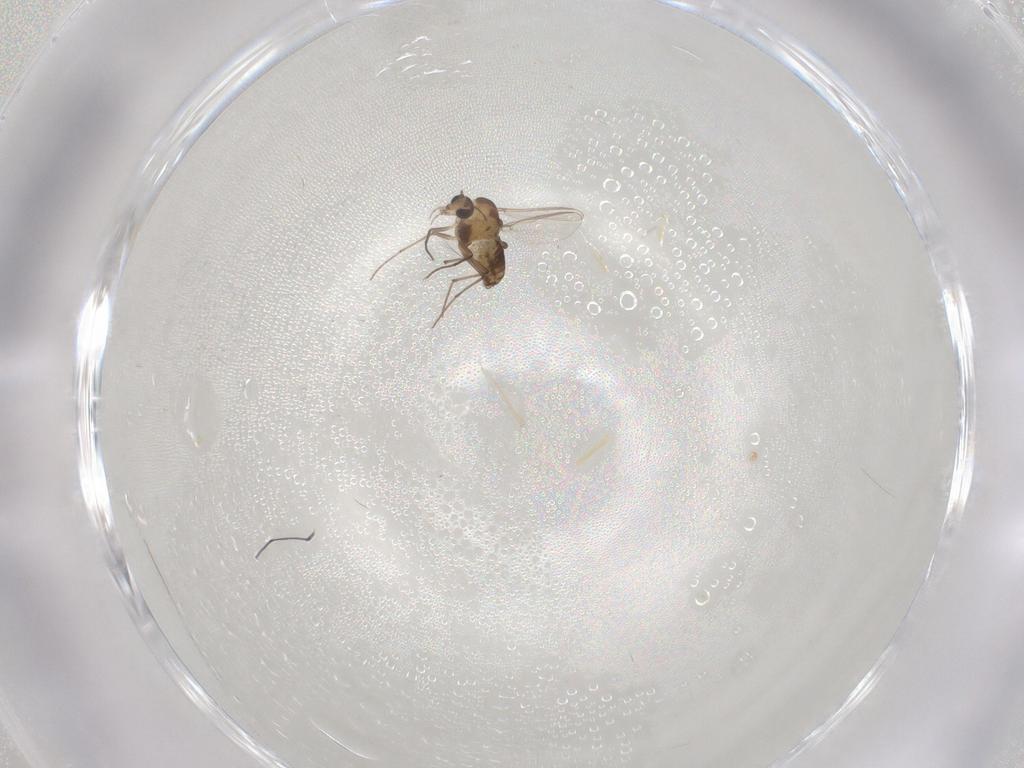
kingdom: Animalia
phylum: Arthropoda
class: Insecta
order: Diptera
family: Chironomidae
